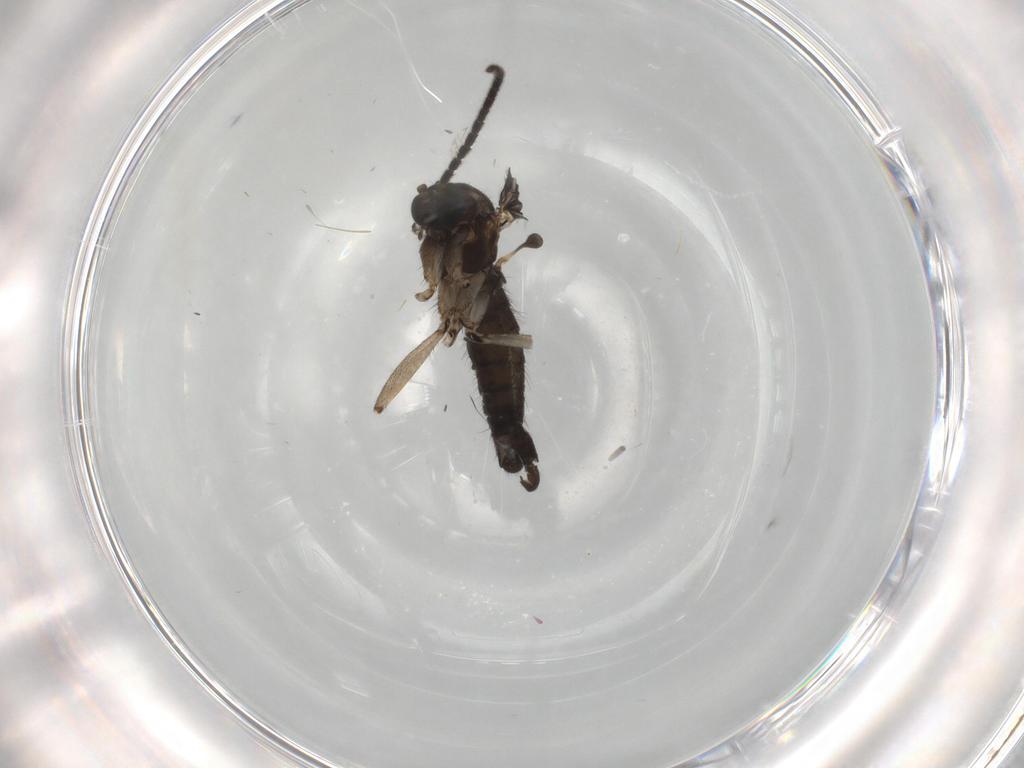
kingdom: Animalia
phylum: Arthropoda
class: Insecta
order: Diptera
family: Sciaridae
